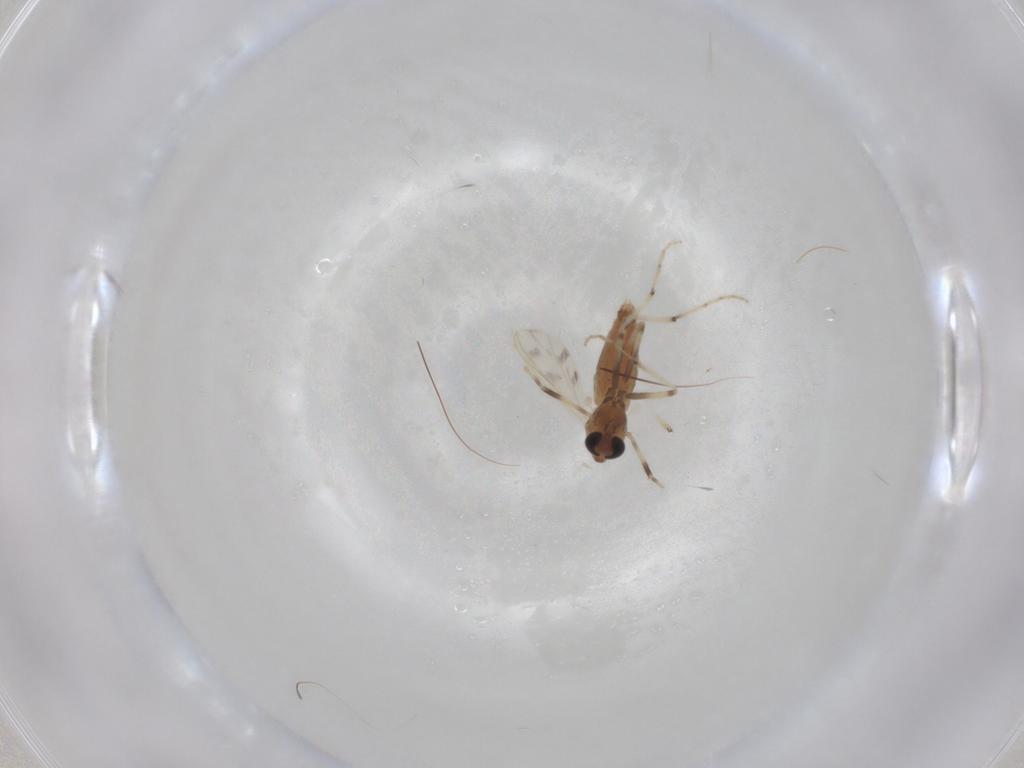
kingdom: Animalia
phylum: Arthropoda
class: Insecta
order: Diptera
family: Chironomidae
